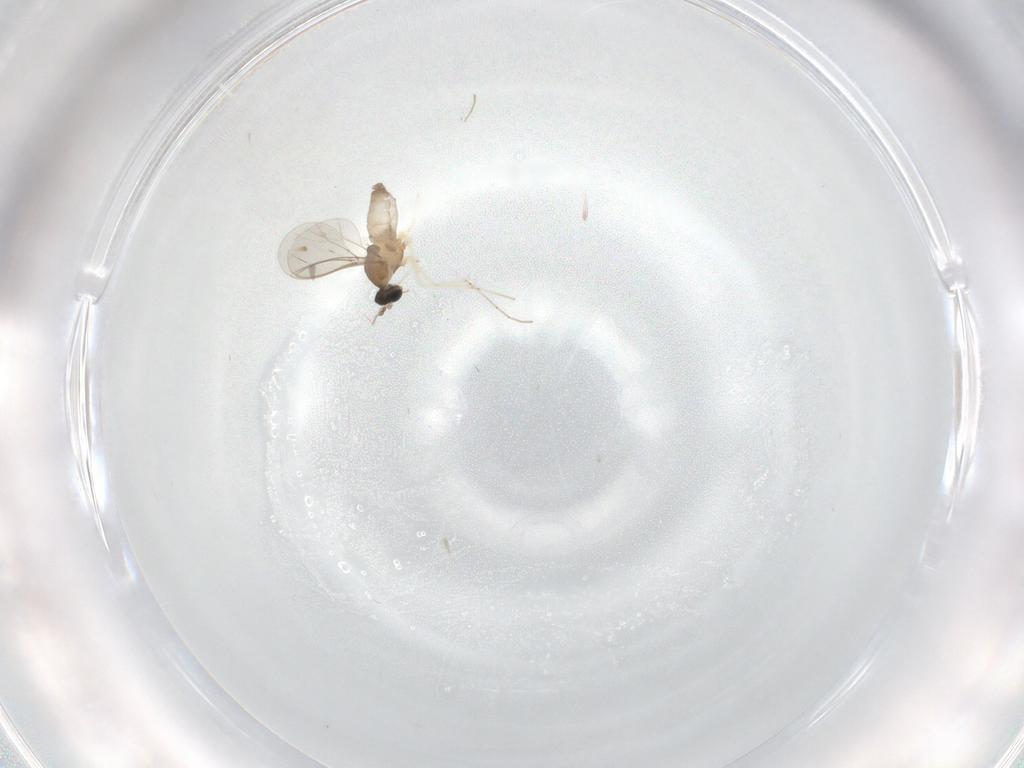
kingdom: Animalia
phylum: Arthropoda
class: Insecta
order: Diptera
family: Cecidomyiidae
